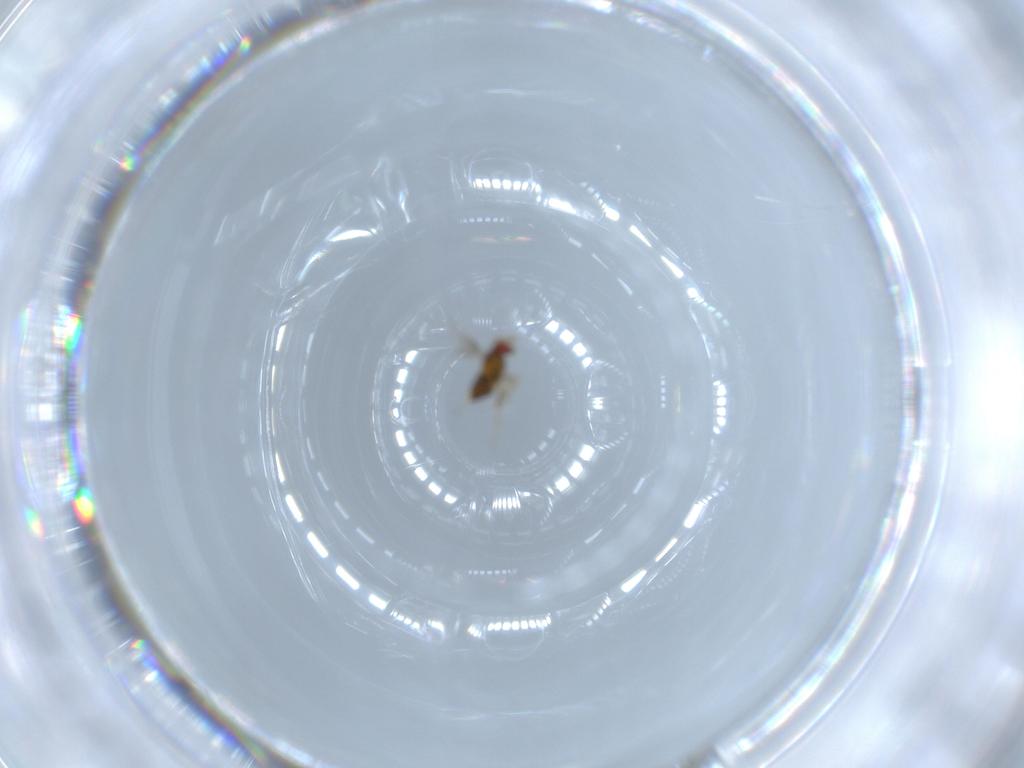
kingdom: Animalia
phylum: Arthropoda
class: Insecta
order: Hymenoptera
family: Trichogrammatidae
